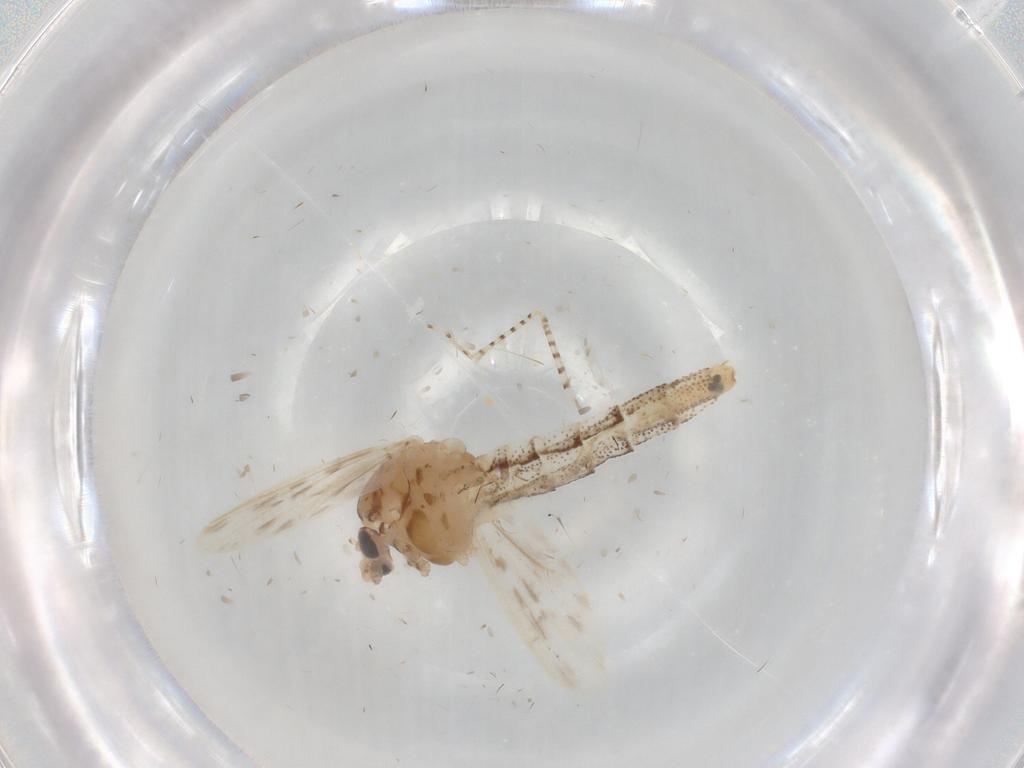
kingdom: Animalia
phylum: Arthropoda
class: Insecta
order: Diptera
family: Chaoboridae
